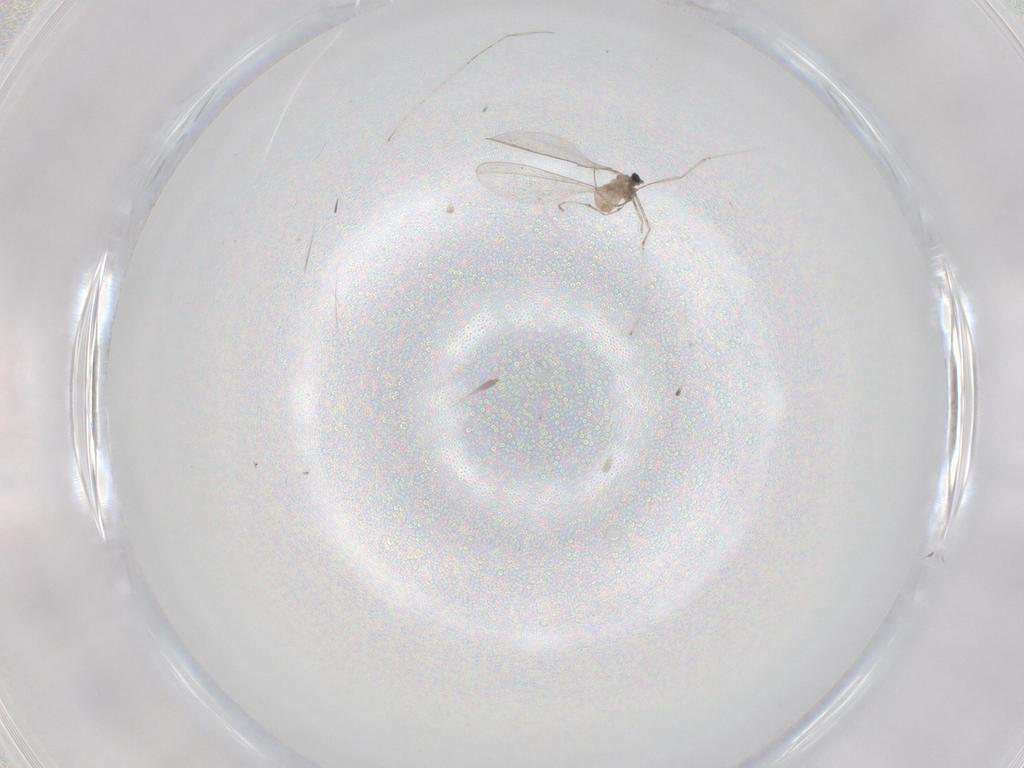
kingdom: Animalia
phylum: Arthropoda
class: Insecta
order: Diptera
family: Cecidomyiidae
